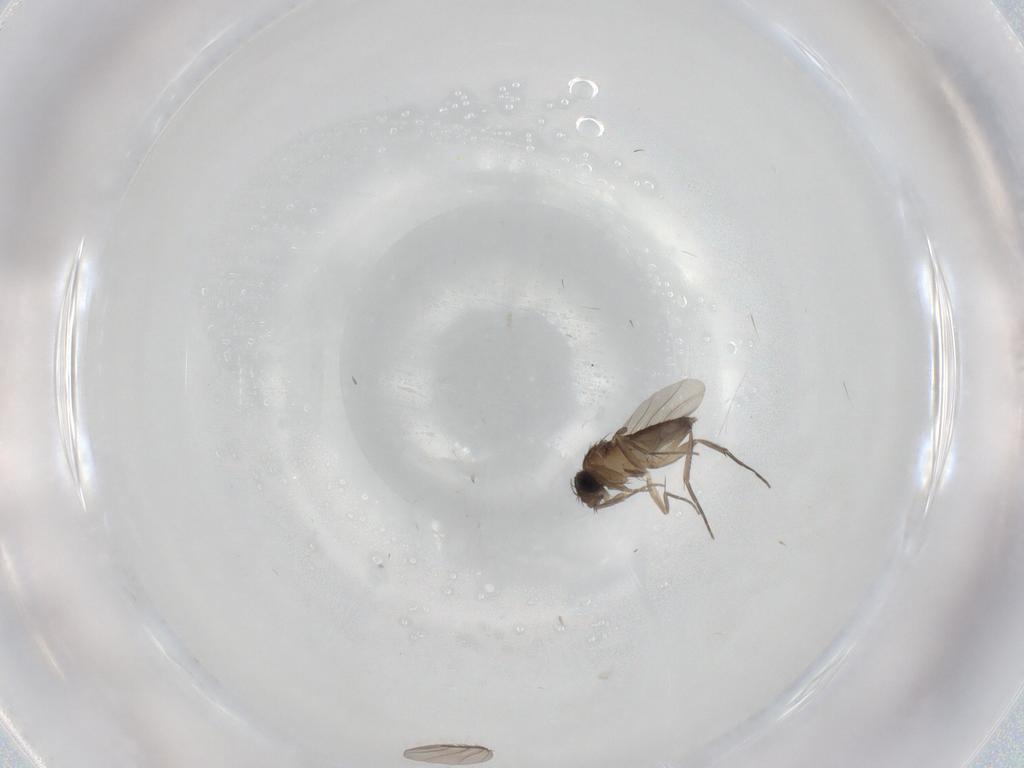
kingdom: Animalia
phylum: Arthropoda
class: Insecta
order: Diptera
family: Phoridae
